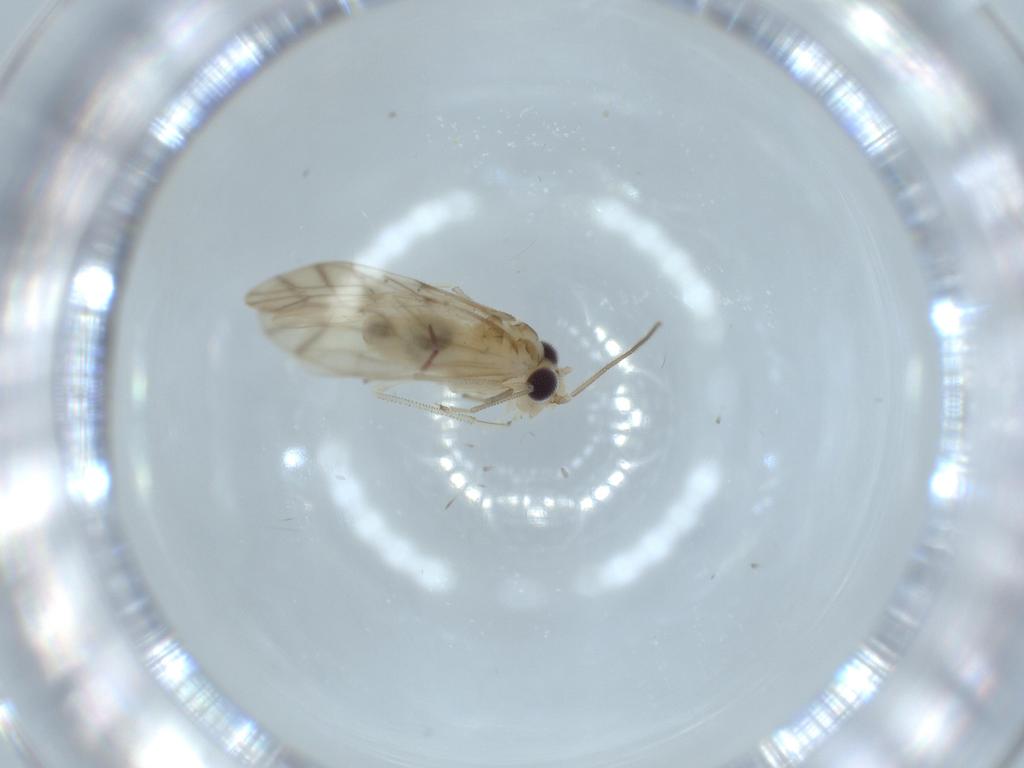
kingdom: Animalia
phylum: Arthropoda
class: Insecta
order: Psocodea
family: Caeciliusidae
